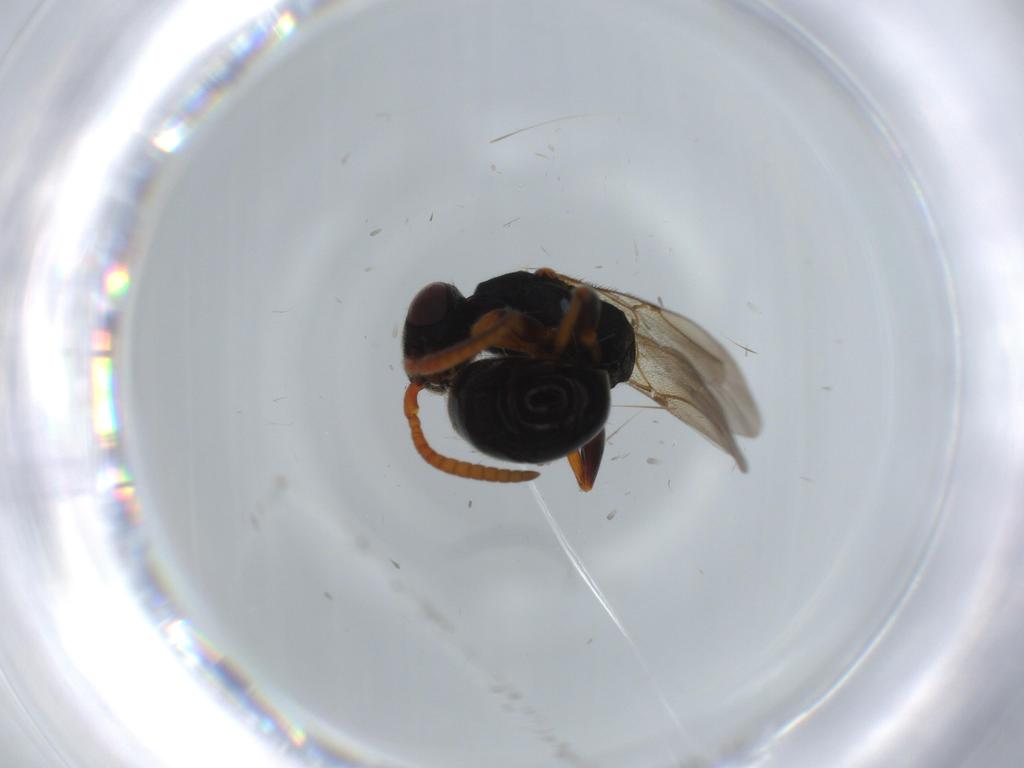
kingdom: Animalia
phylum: Arthropoda
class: Insecta
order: Hymenoptera
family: Bethylidae
